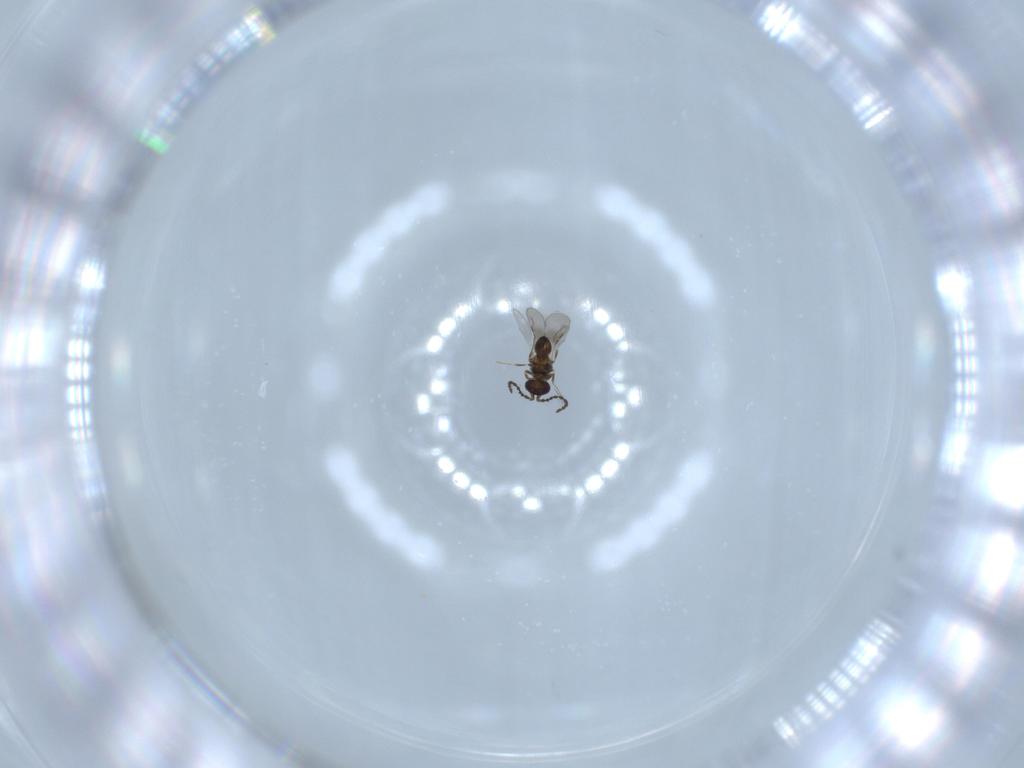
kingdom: Animalia
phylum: Arthropoda
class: Insecta
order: Hymenoptera
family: Ceraphronidae
